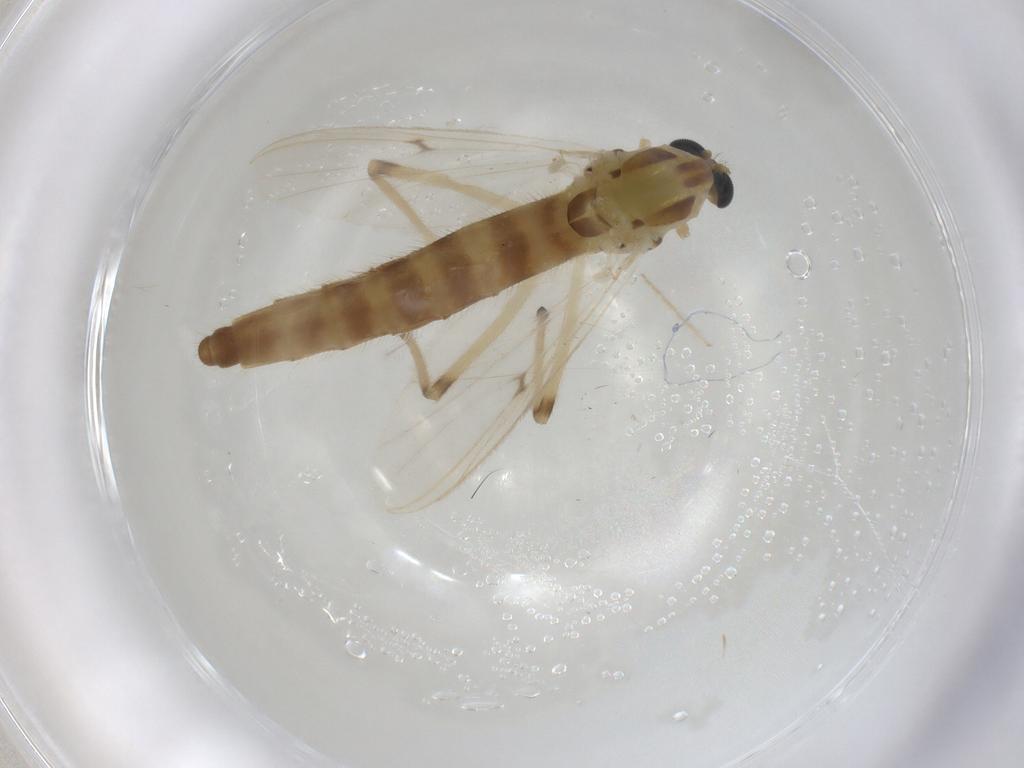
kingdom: Animalia
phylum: Arthropoda
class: Insecta
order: Diptera
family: Chironomidae
